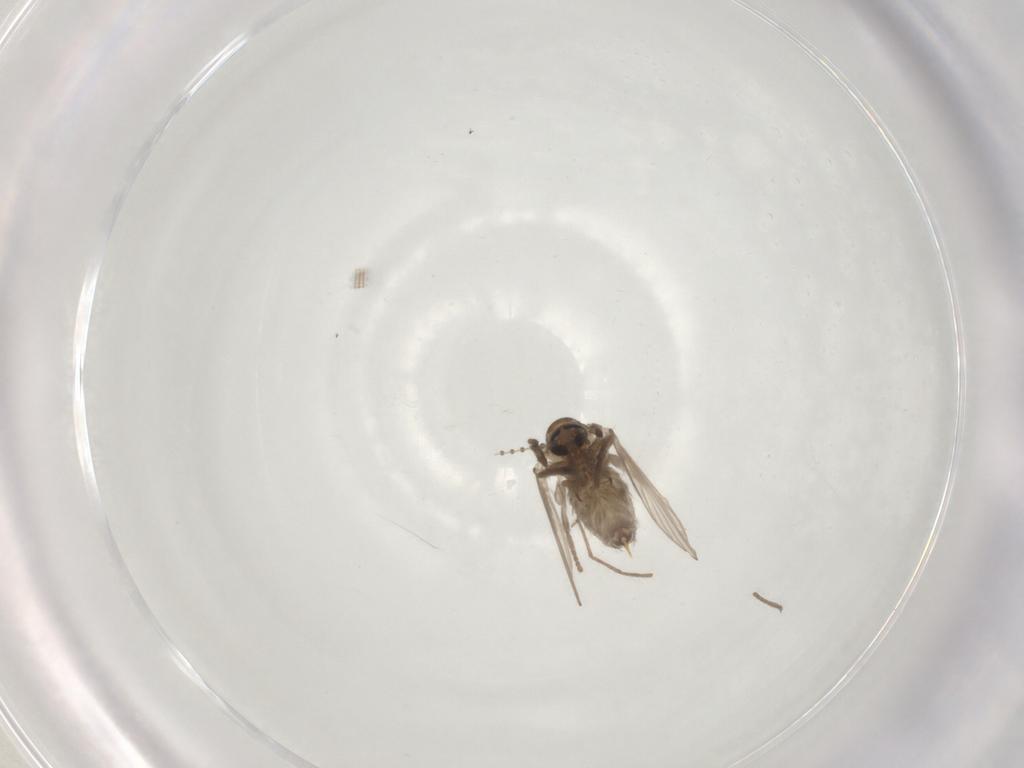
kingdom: Animalia
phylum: Arthropoda
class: Insecta
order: Diptera
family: Psychodidae
